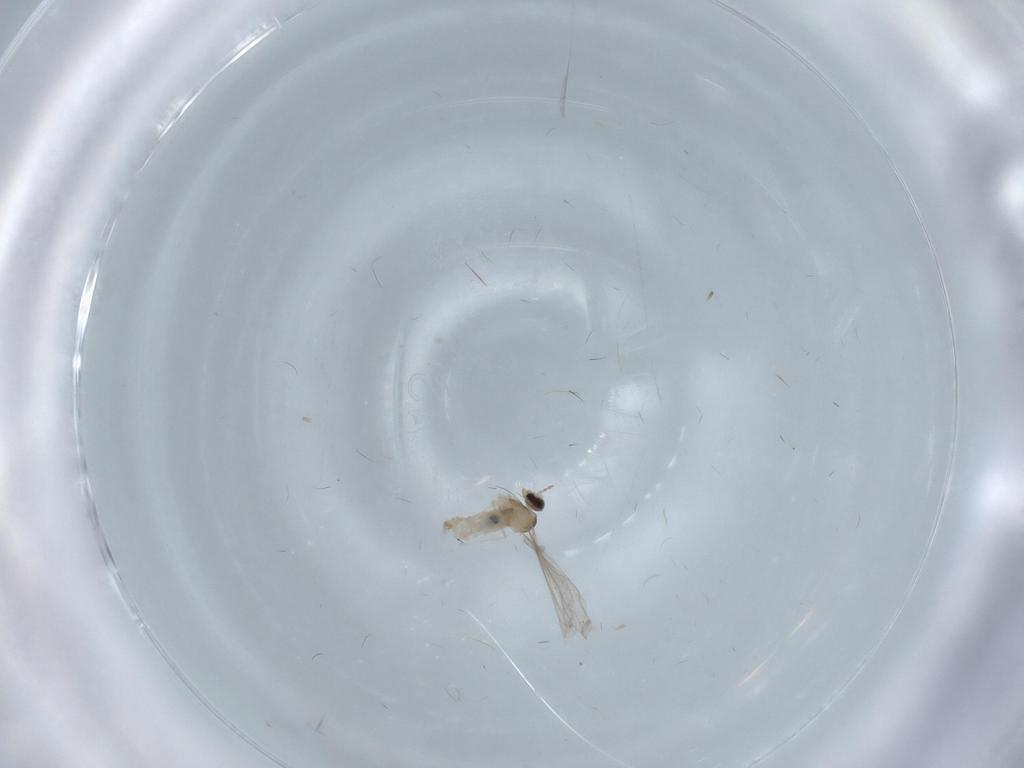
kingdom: Animalia
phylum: Arthropoda
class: Insecta
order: Diptera
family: Cecidomyiidae
